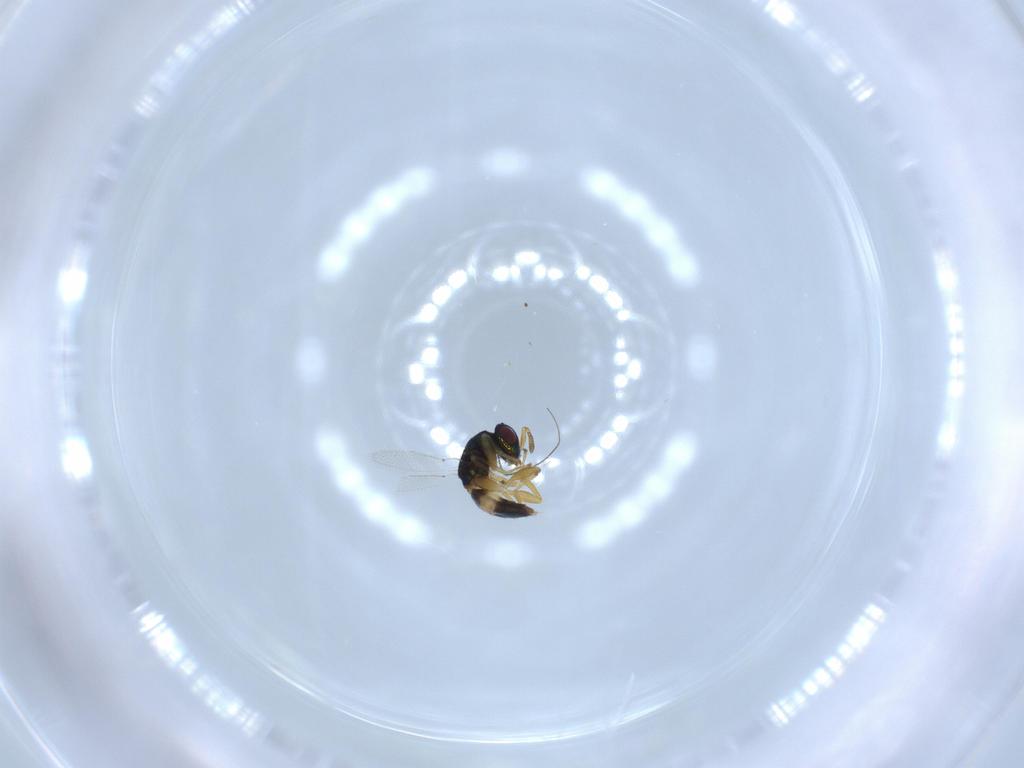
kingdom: Animalia
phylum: Arthropoda
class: Insecta
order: Hymenoptera
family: Torymidae
